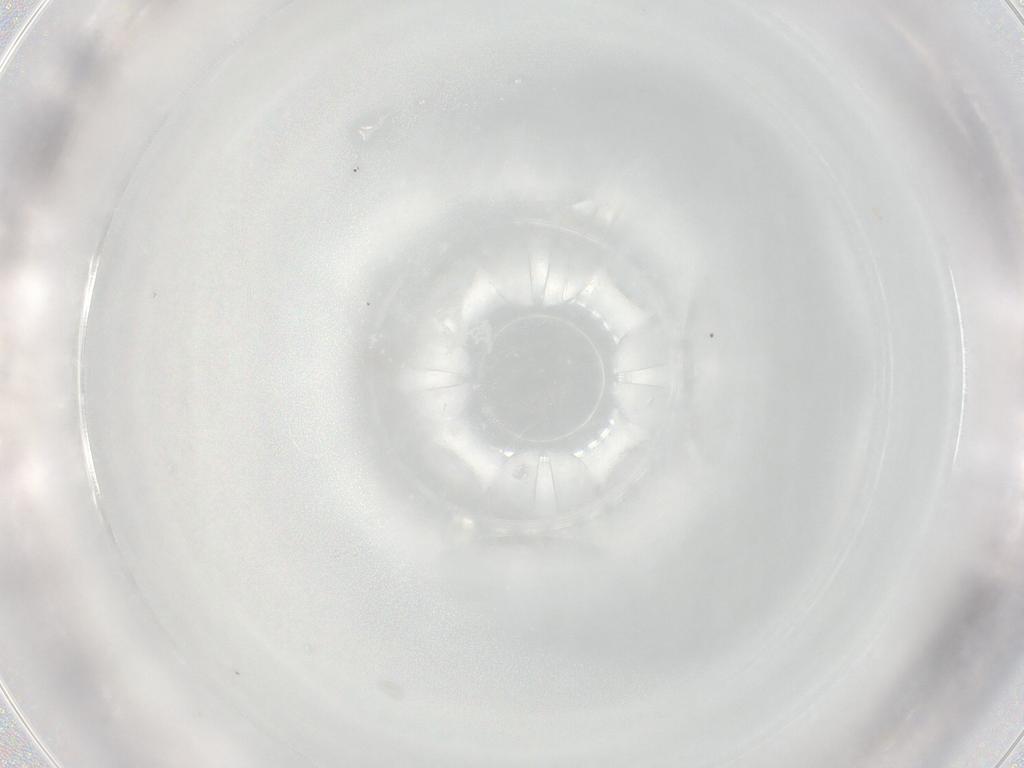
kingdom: Animalia
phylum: Arthropoda
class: Collembola
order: Entomobryomorpha
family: Entomobryidae
